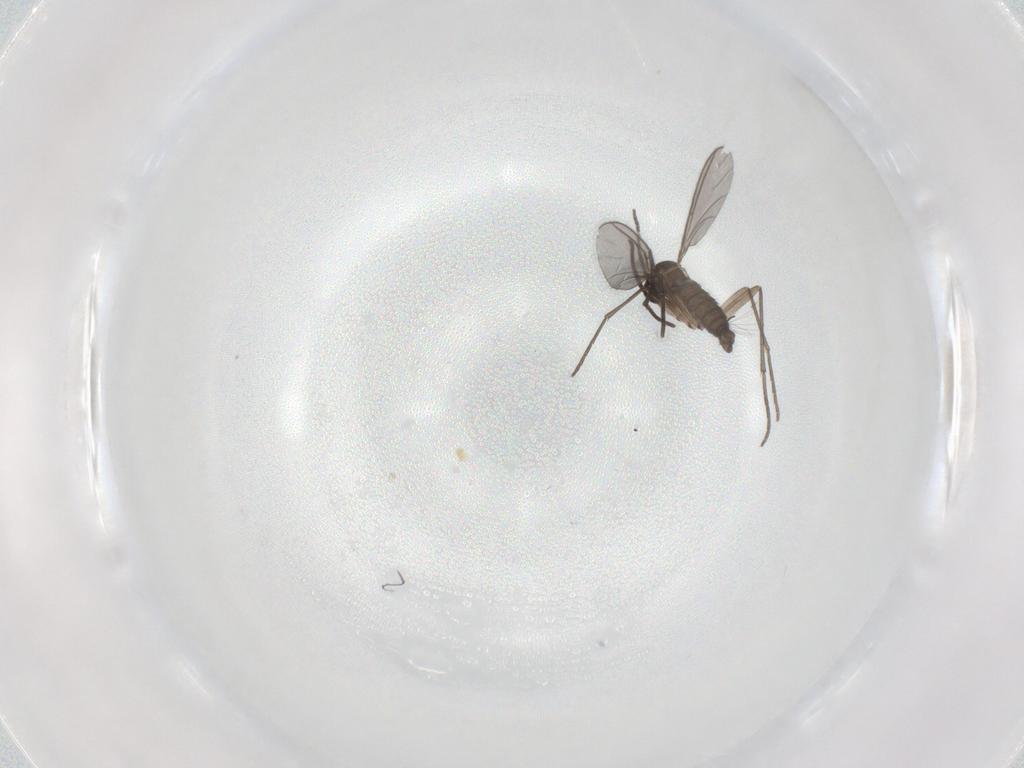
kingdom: Animalia
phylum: Arthropoda
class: Insecta
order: Diptera
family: Sciaridae
